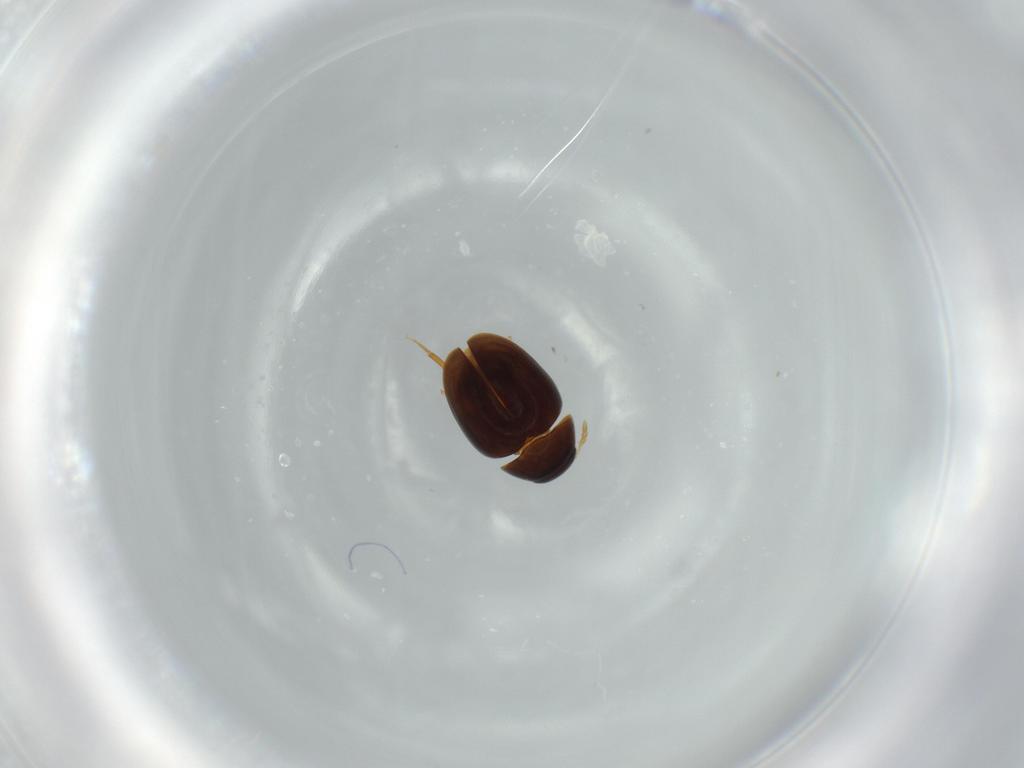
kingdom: Animalia
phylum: Arthropoda
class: Insecta
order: Coleoptera
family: Phalacridae
